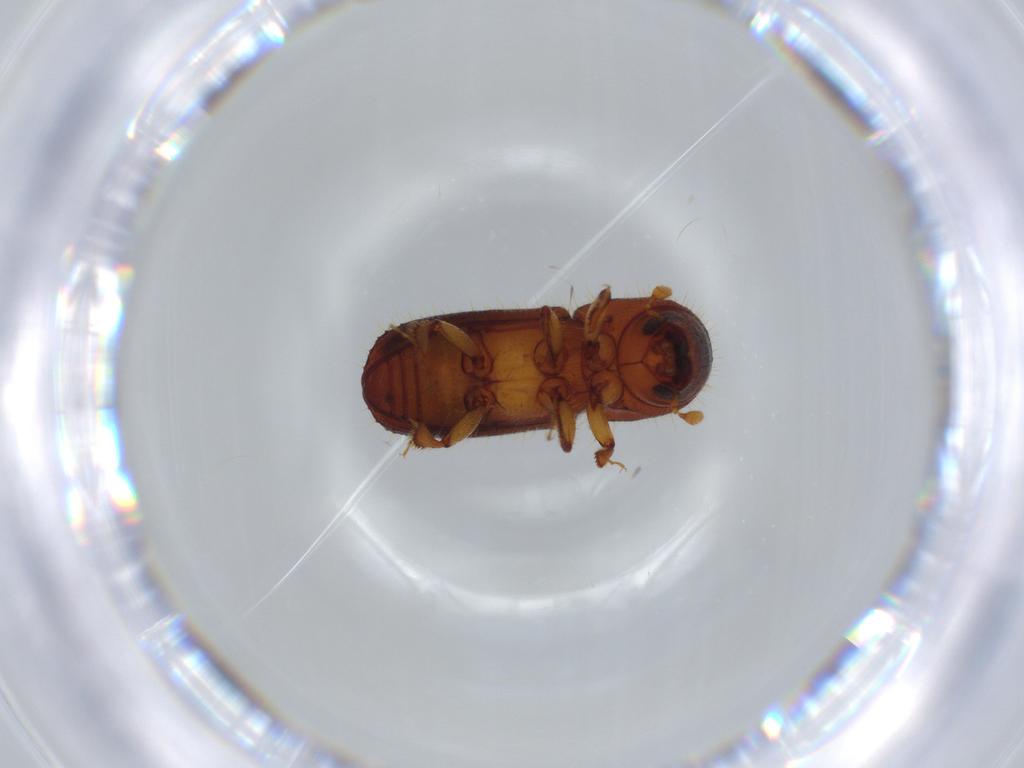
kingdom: Animalia
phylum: Arthropoda
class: Insecta
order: Coleoptera
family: Curculionidae
